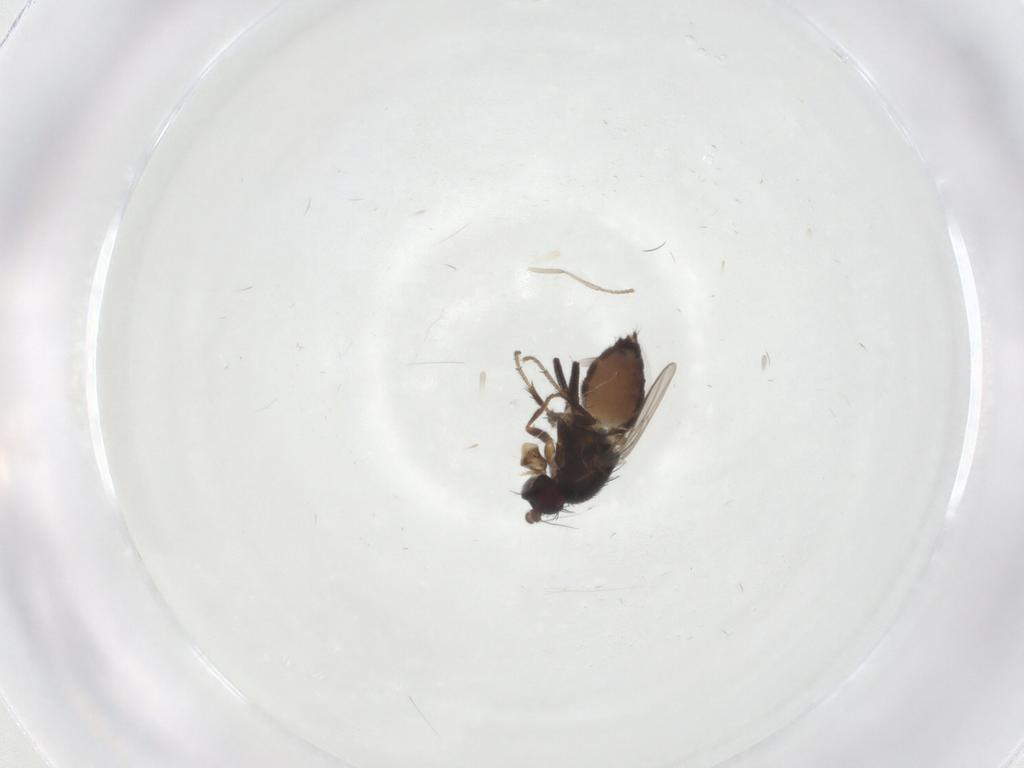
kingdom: Animalia
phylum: Arthropoda
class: Insecta
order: Diptera
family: Sphaeroceridae
